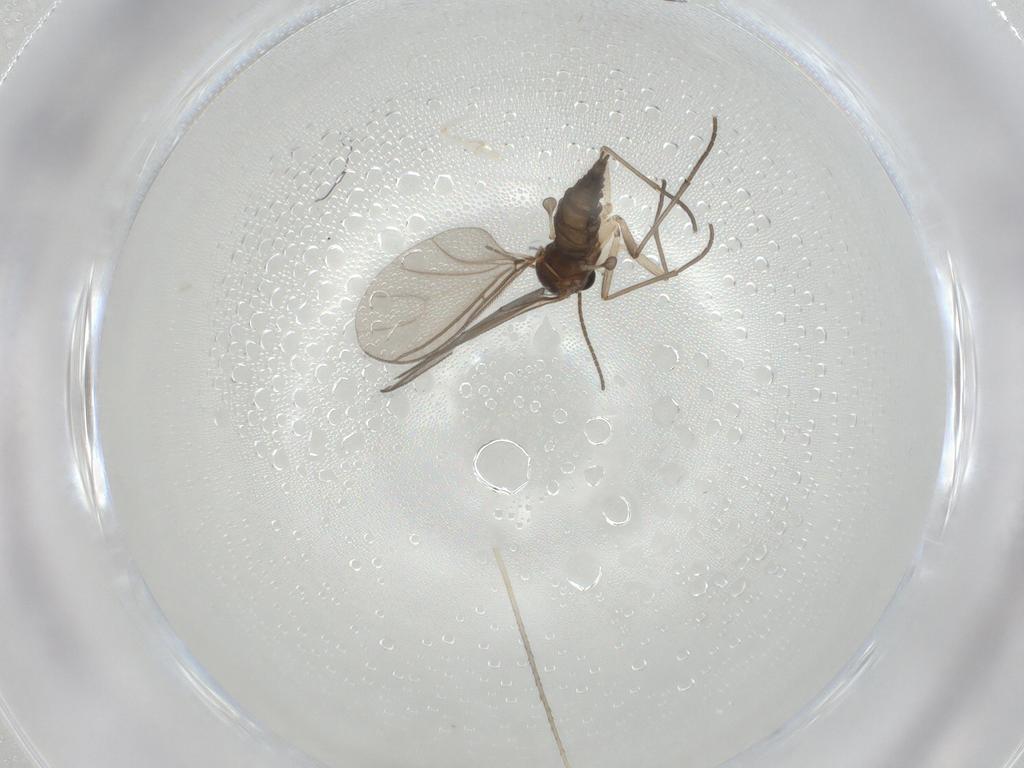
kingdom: Animalia
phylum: Arthropoda
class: Insecta
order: Diptera
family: Sciaridae
